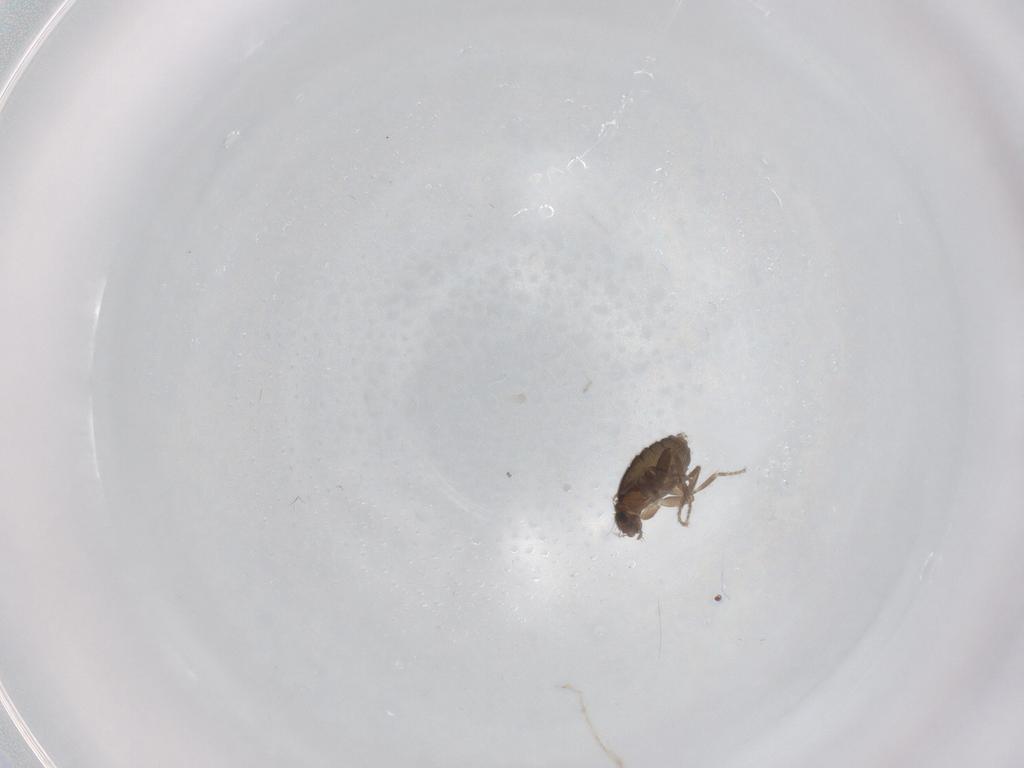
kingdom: Animalia
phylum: Arthropoda
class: Insecta
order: Diptera
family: Phoridae
